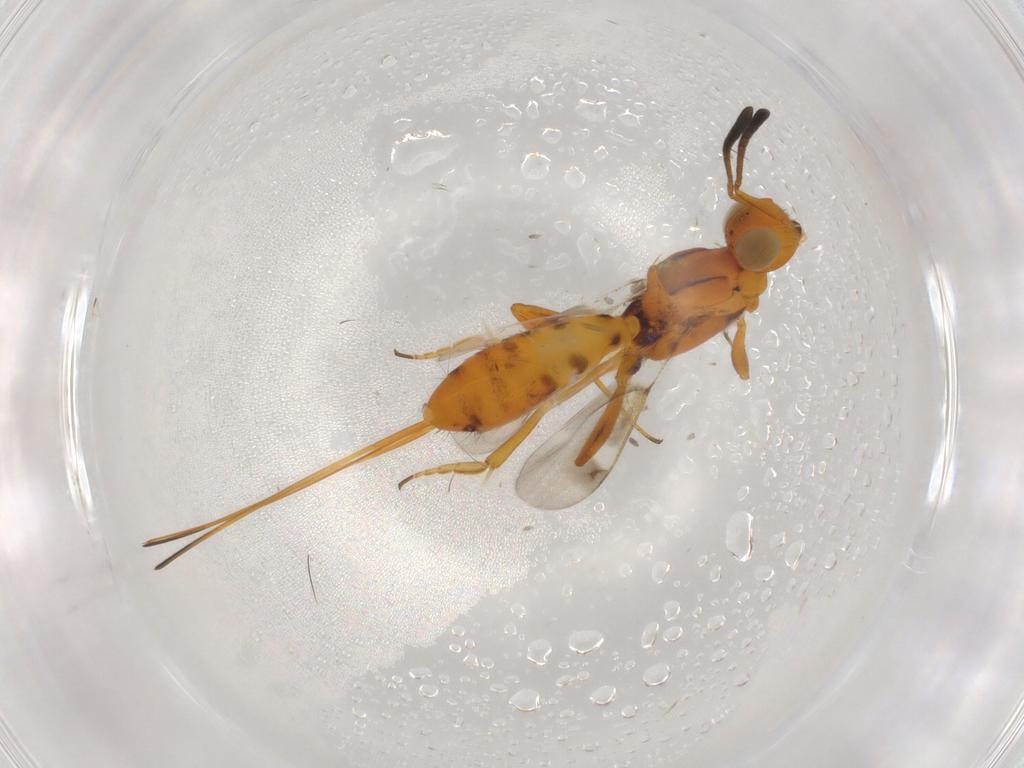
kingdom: Animalia
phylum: Arthropoda
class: Insecta
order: Hymenoptera
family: Eupelmidae
